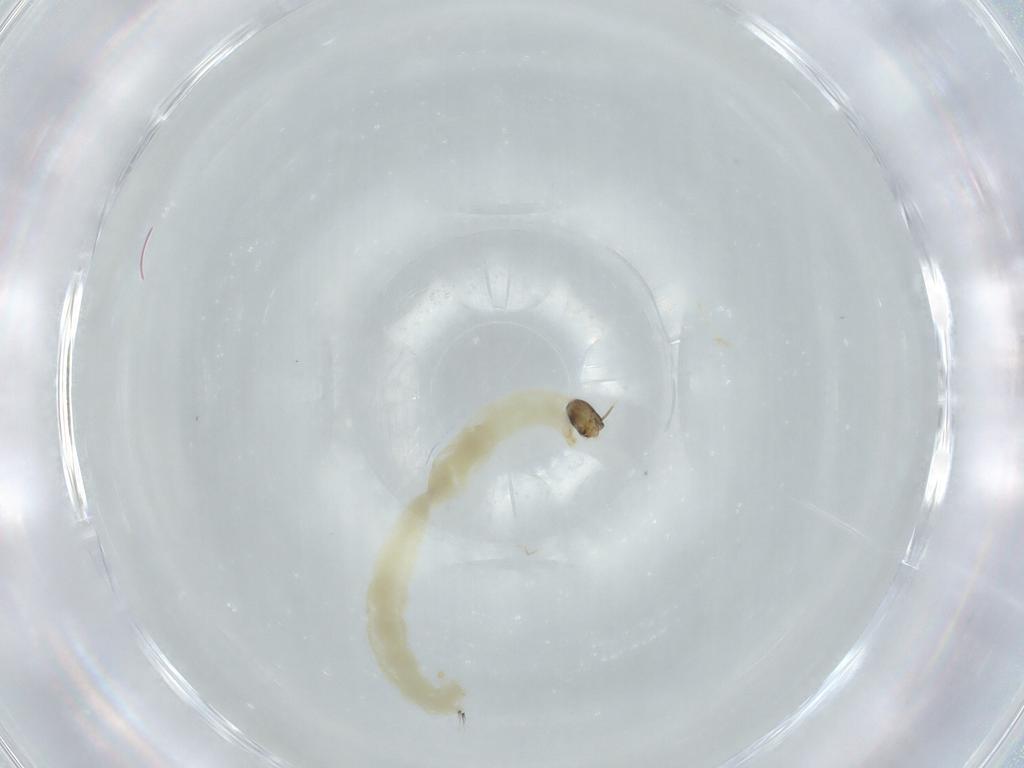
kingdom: Animalia
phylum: Arthropoda
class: Insecta
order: Diptera
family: Chironomidae
